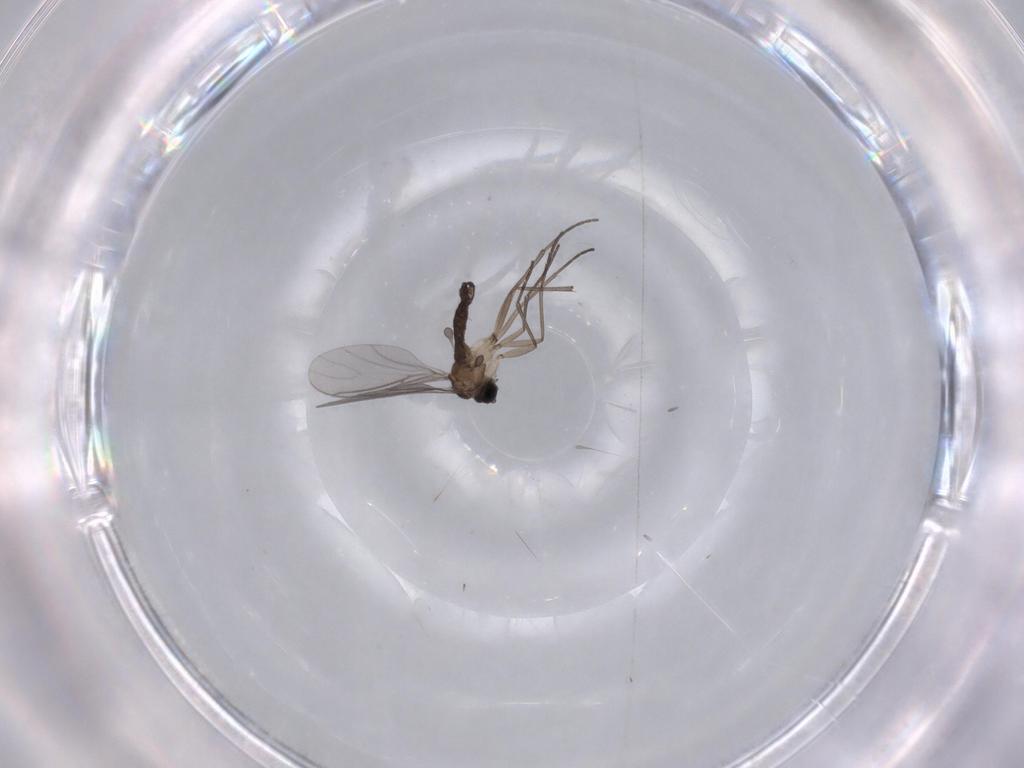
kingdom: Animalia
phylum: Arthropoda
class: Insecta
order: Diptera
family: Sciaridae
